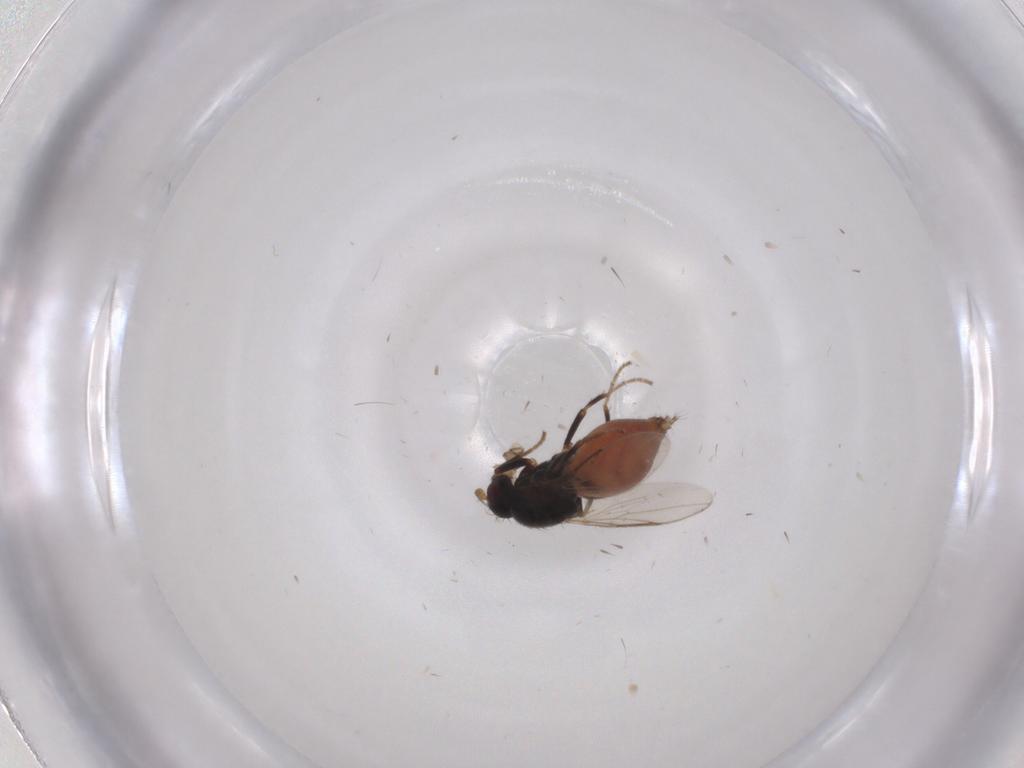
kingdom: Animalia
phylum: Arthropoda
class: Insecta
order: Diptera
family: Sphaeroceridae
